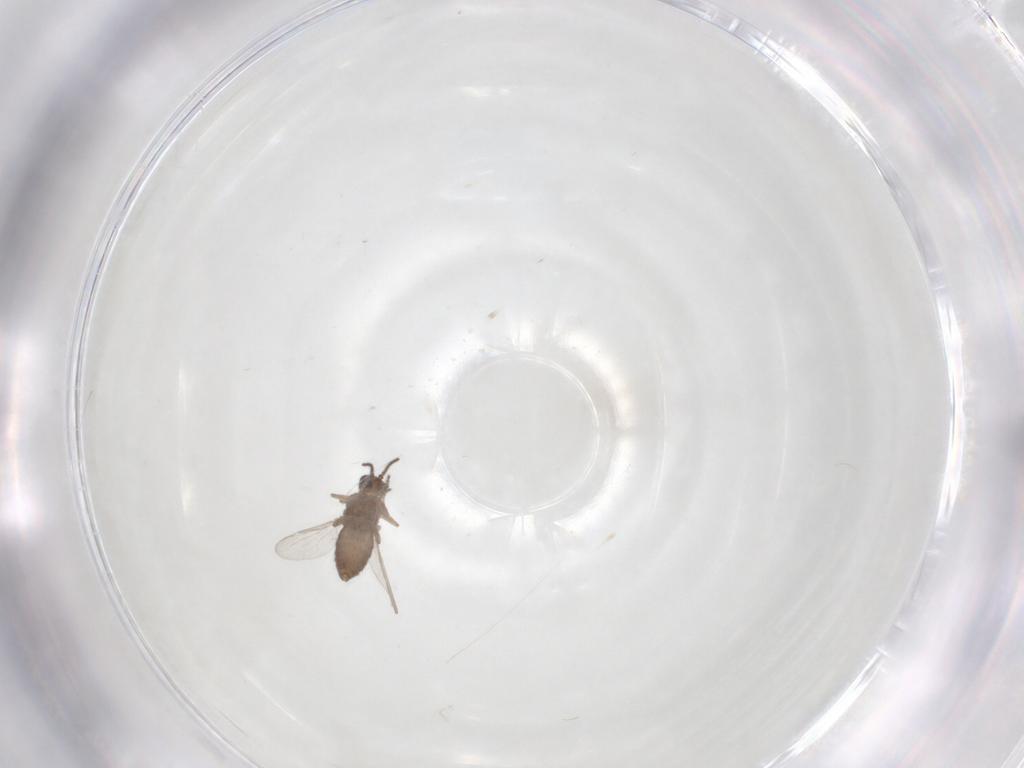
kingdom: Animalia
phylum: Arthropoda
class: Insecta
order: Diptera
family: Ceratopogonidae
